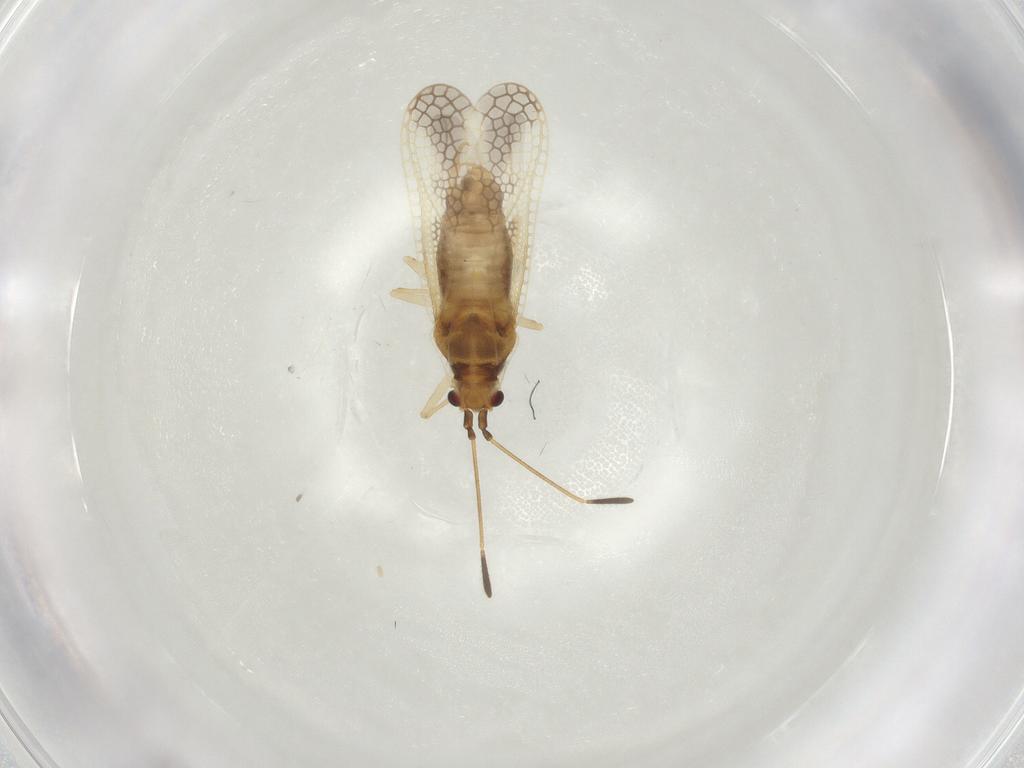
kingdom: Animalia
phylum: Arthropoda
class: Insecta
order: Hemiptera
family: Tingidae
